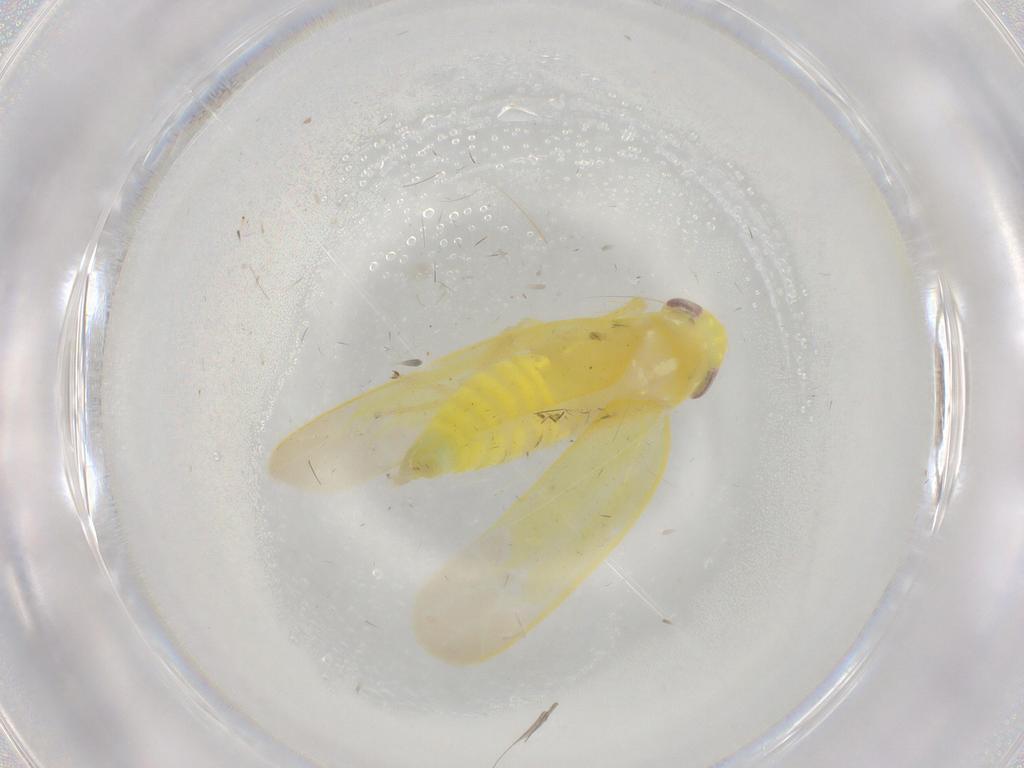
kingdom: Animalia
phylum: Arthropoda
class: Insecta
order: Hemiptera
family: Cicadellidae
